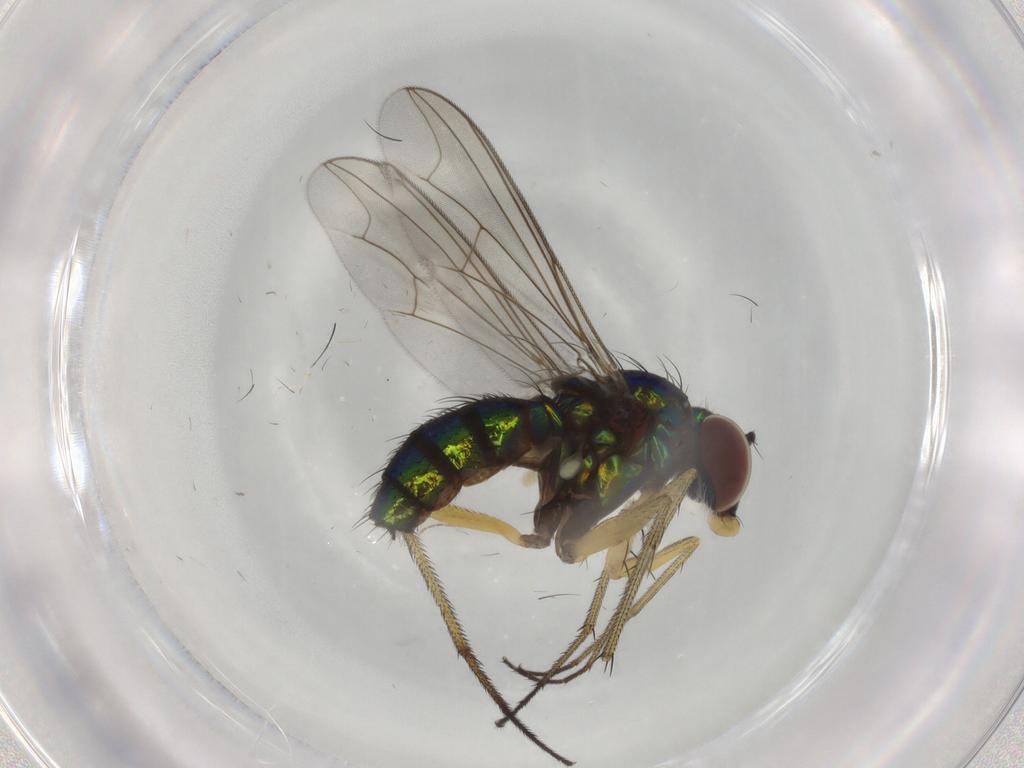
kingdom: Animalia
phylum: Arthropoda
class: Insecta
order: Diptera
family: Dolichopodidae
